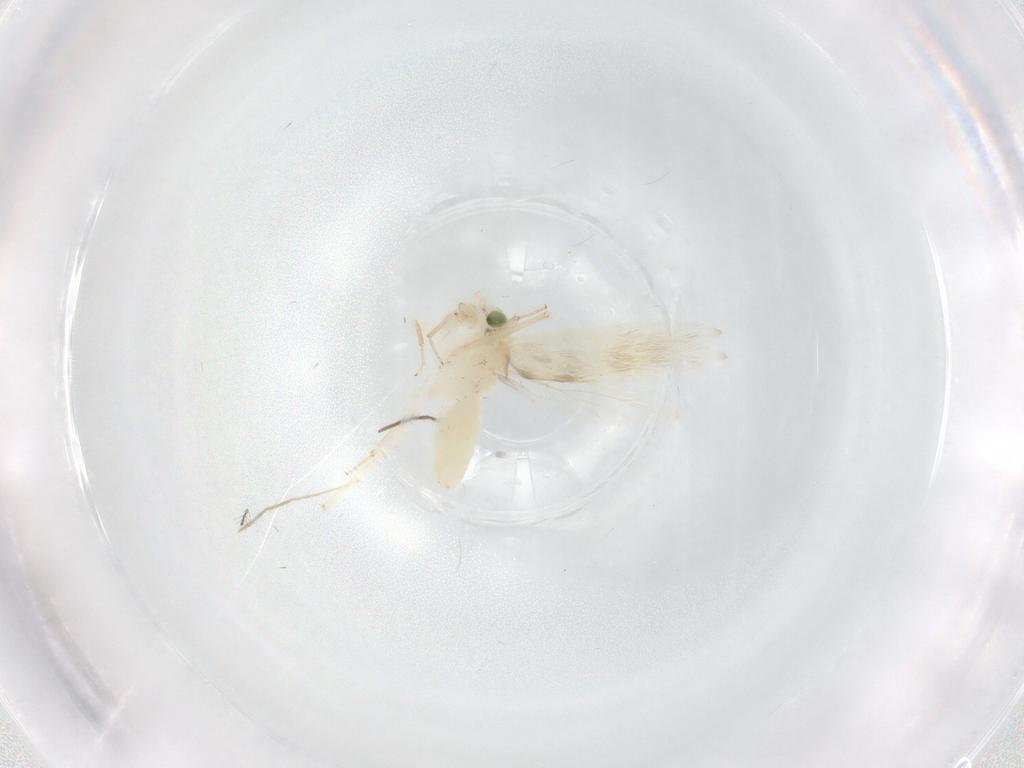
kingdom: Animalia
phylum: Arthropoda
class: Insecta
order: Psocodea
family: Lepidopsocidae
